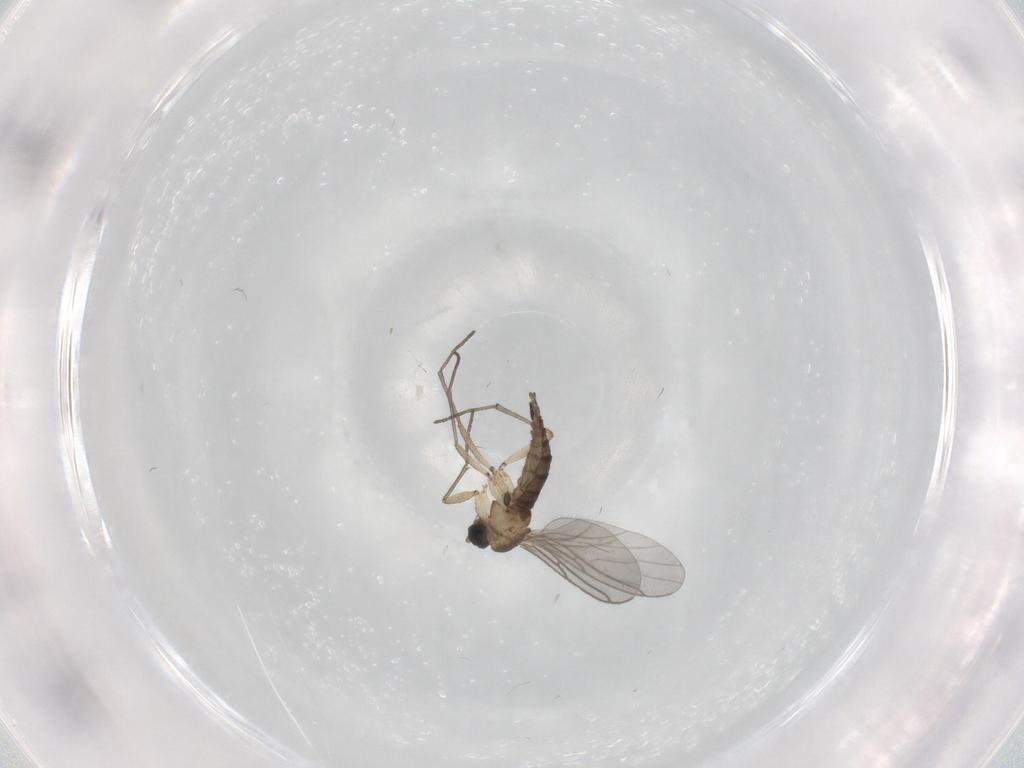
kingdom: Animalia
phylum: Arthropoda
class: Insecta
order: Diptera
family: Sciaridae
